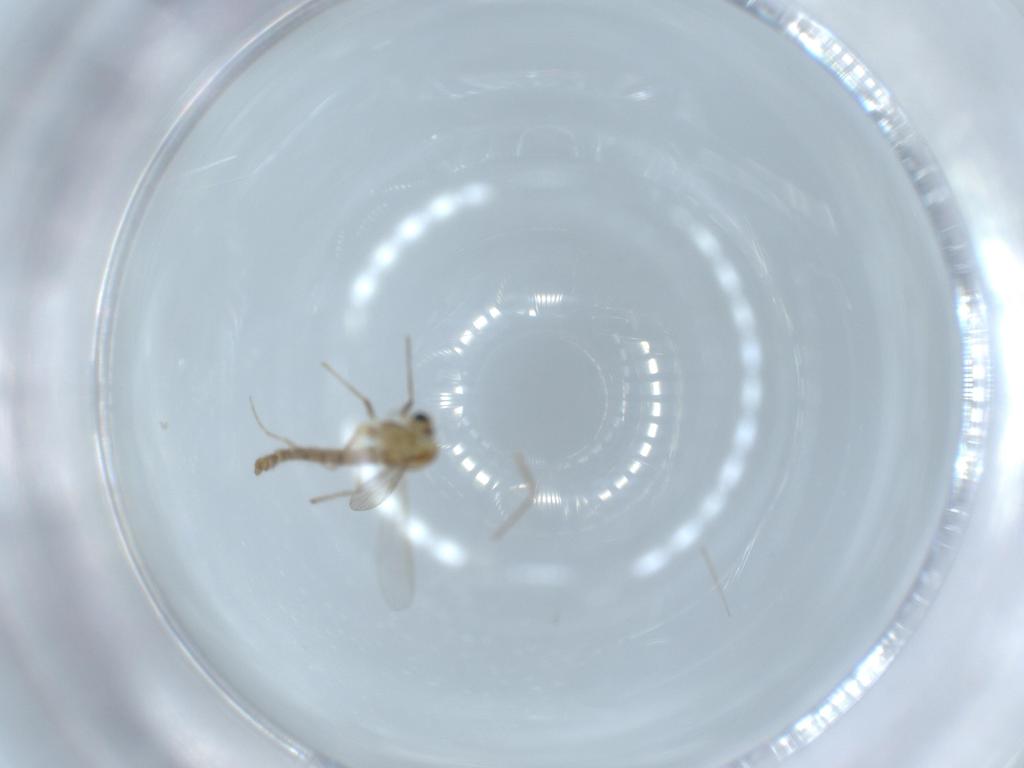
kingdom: Animalia
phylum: Arthropoda
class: Insecta
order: Diptera
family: Chironomidae
